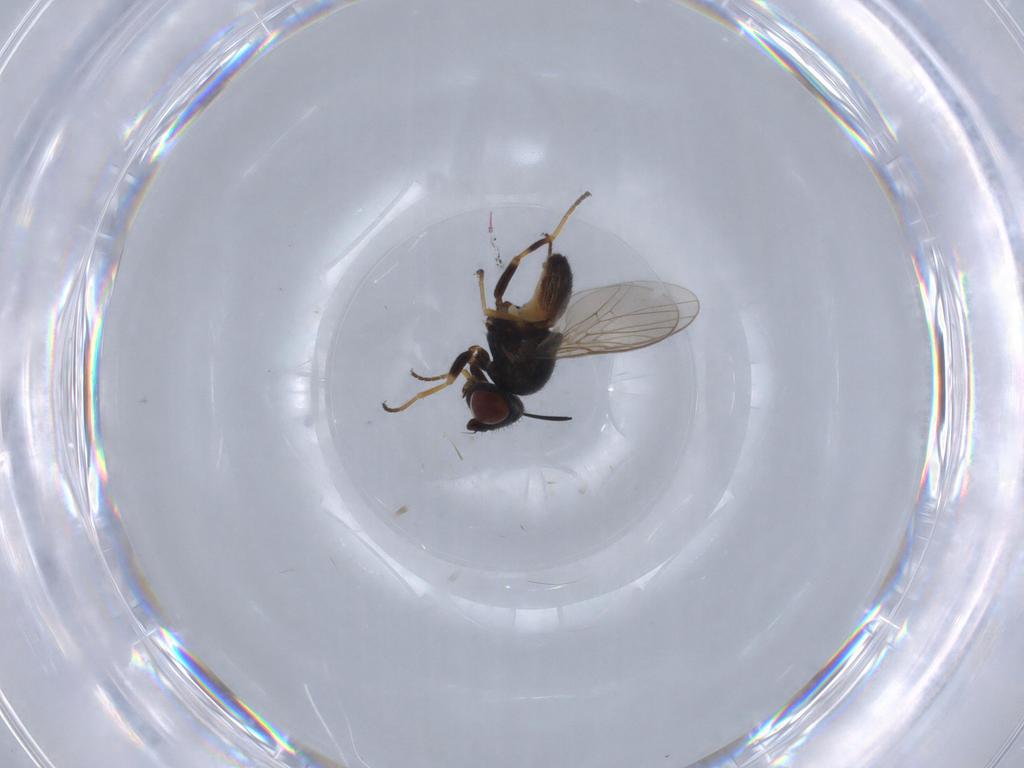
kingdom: Animalia
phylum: Arthropoda
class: Insecta
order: Diptera
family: Chloropidae
